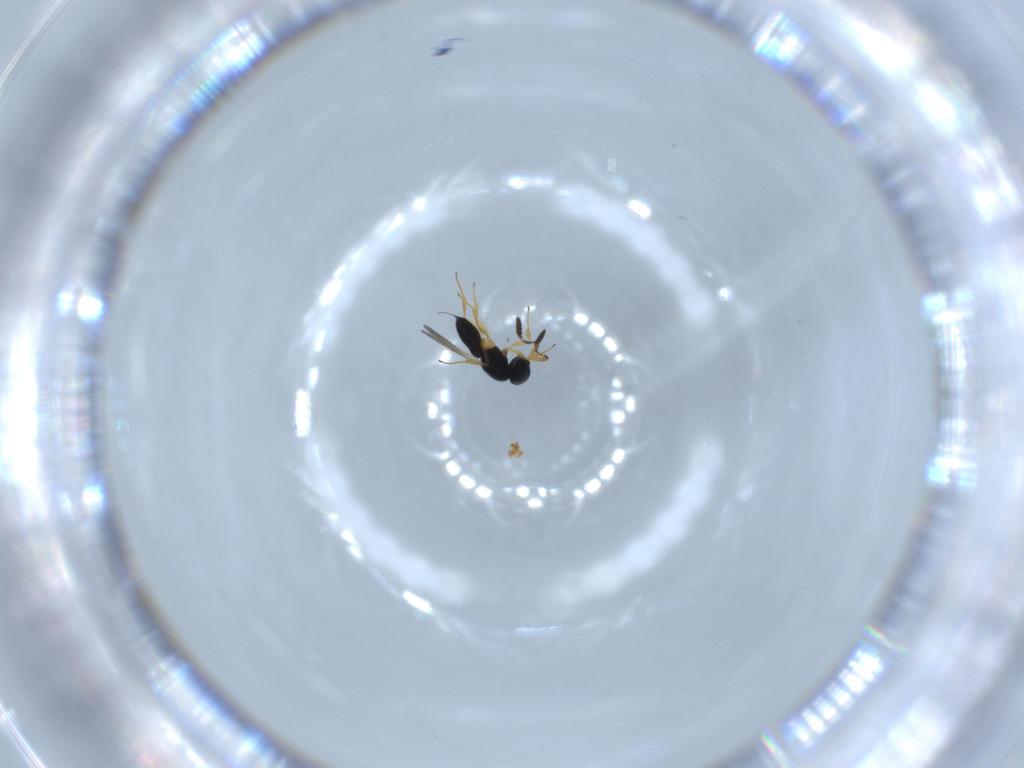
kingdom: Animalia
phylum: Arthropoda
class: Insecta
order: Hymenoptera
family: Scelionidae
